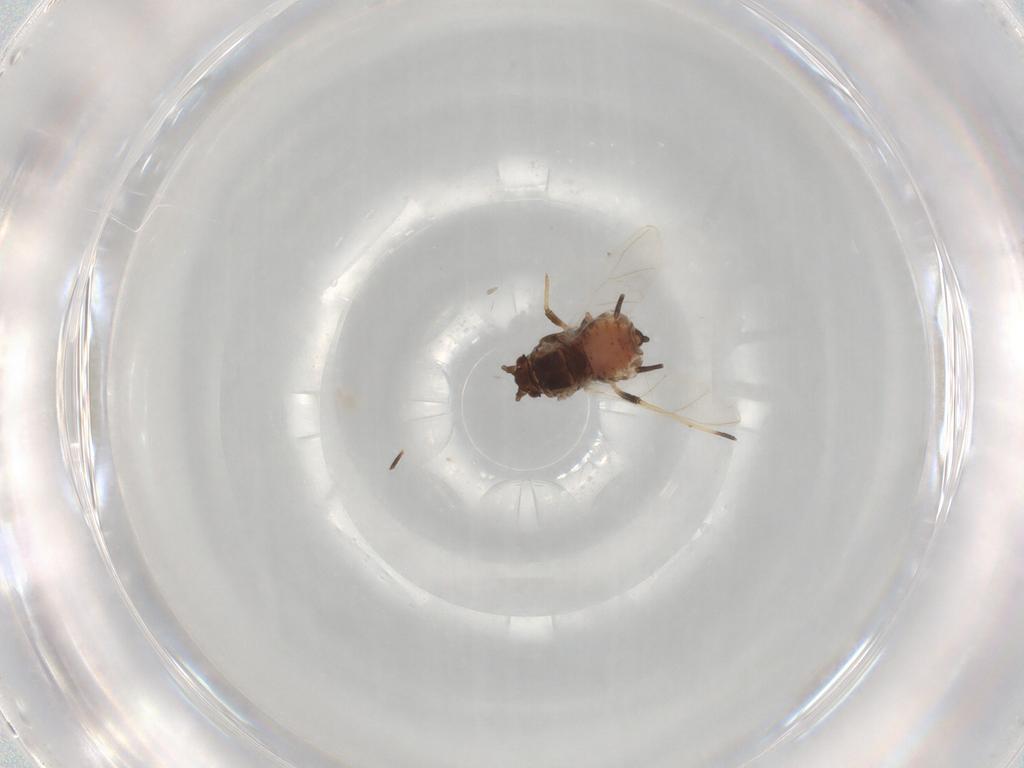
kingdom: Animalia
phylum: Arthropoda
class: Insecta
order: Hemiptera
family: Aphididae
